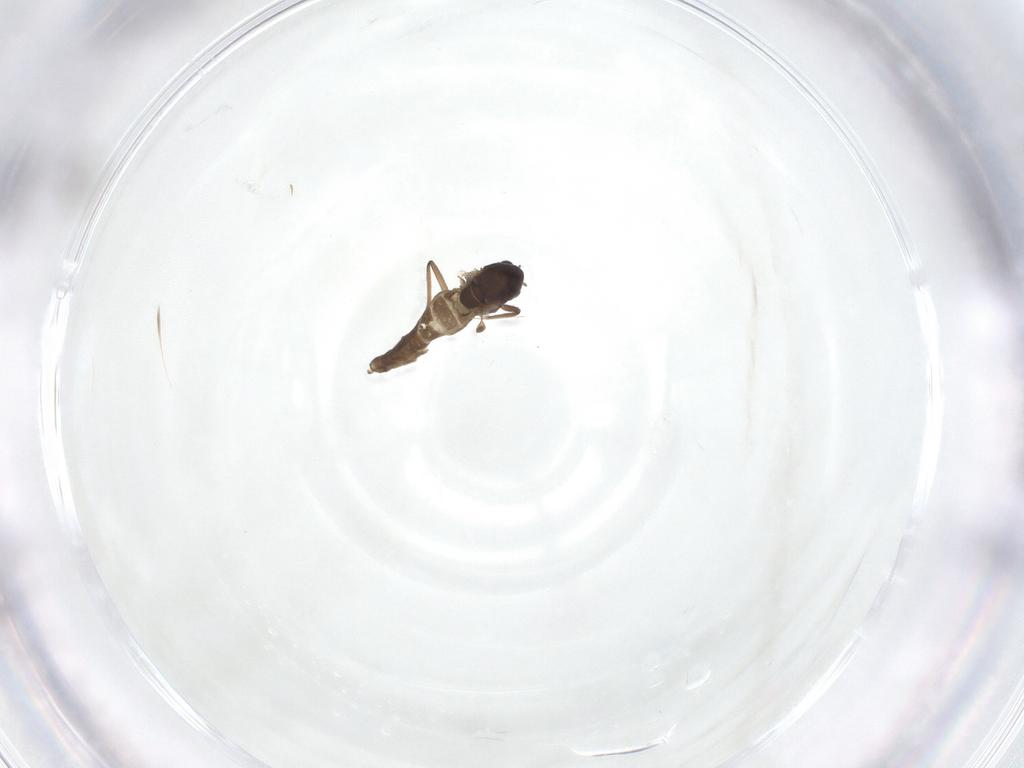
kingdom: Animalia
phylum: Arthropoda
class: Insecta
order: Diptera
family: Chironomidae
